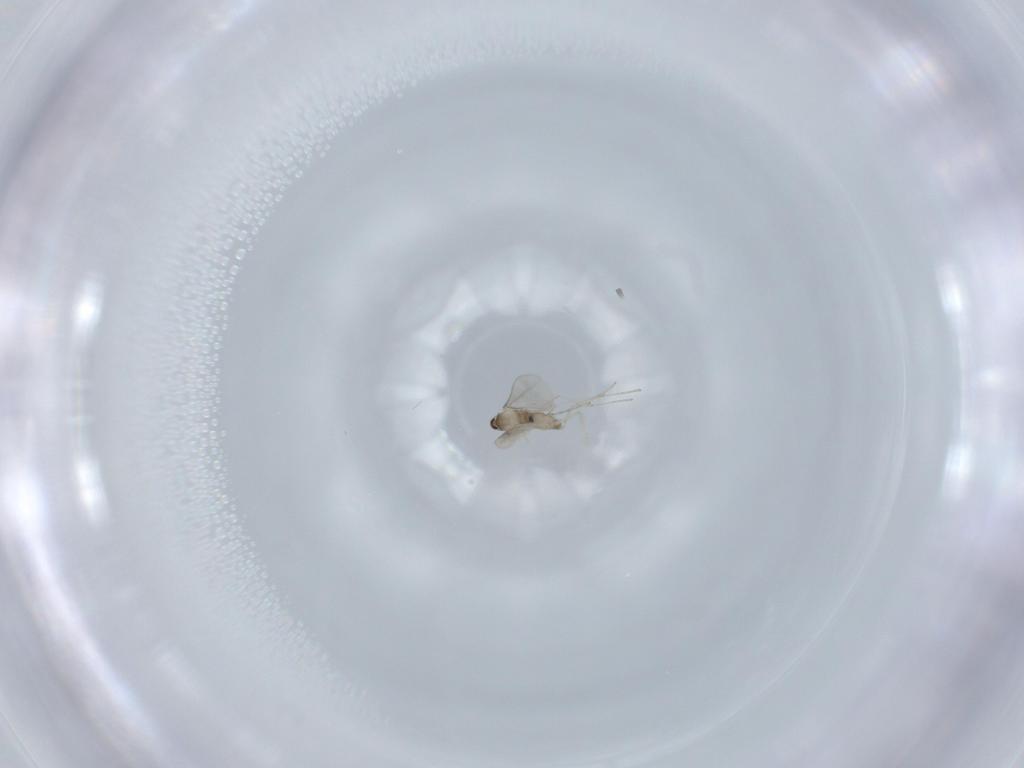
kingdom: Animalia
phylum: Arthropoda
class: Insecta
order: Diptera
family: Cecidomyiidae
